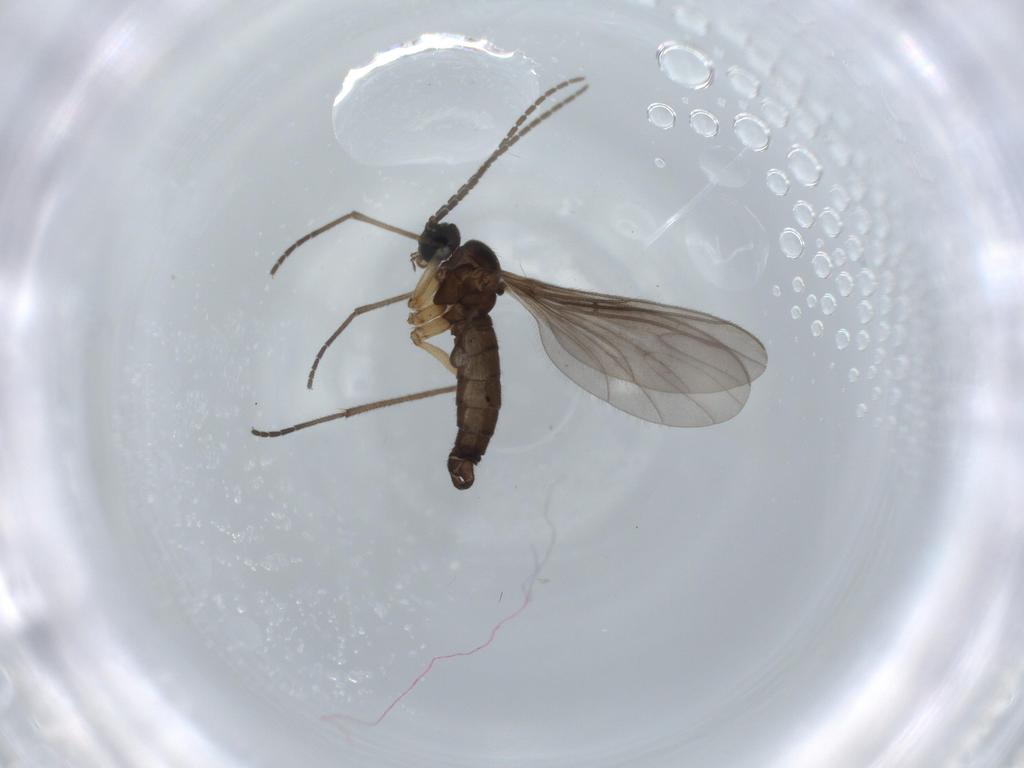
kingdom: Animalia
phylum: Arthropoda
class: Insecta
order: Diptera
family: Sciaridae
